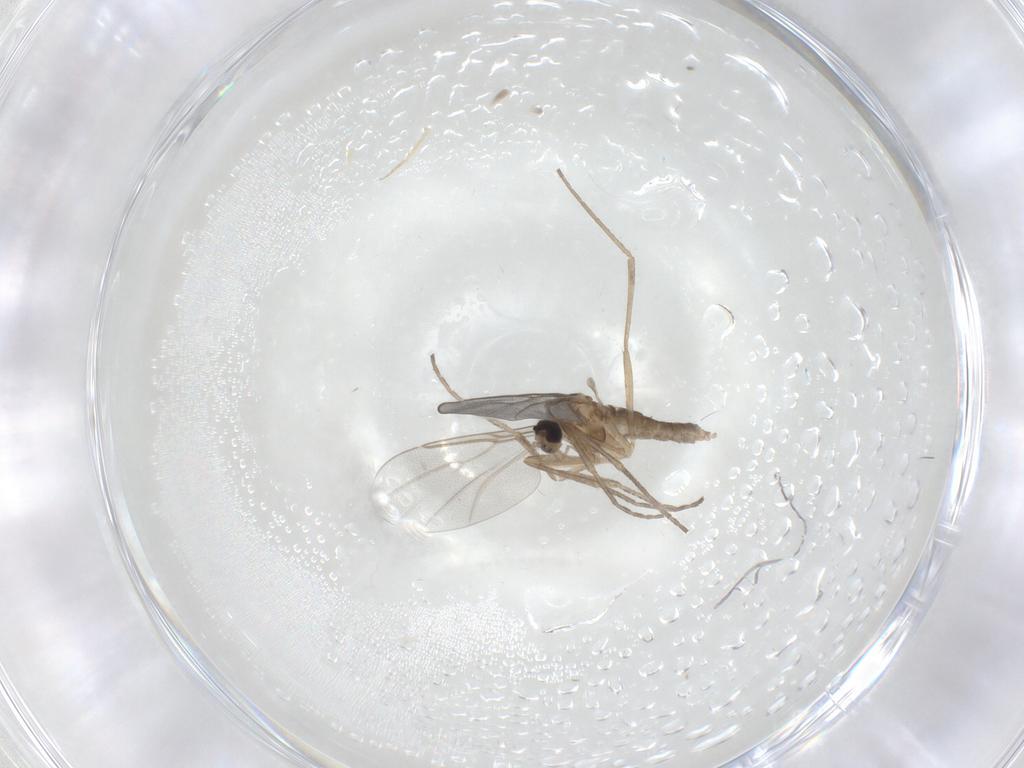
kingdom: Animalia
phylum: Arthropoda
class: Insecta
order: Diptera
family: Cecidomyiidae
